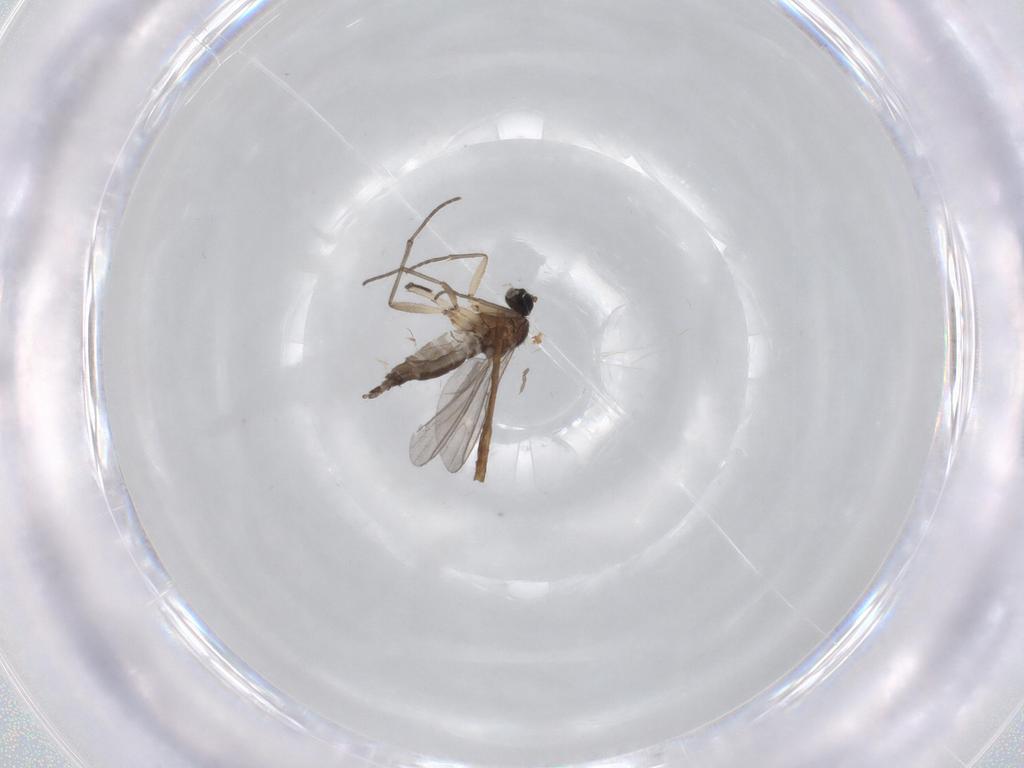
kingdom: Animalia
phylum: Arthropoda
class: Insecta
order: Diptera
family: Sciaridae
